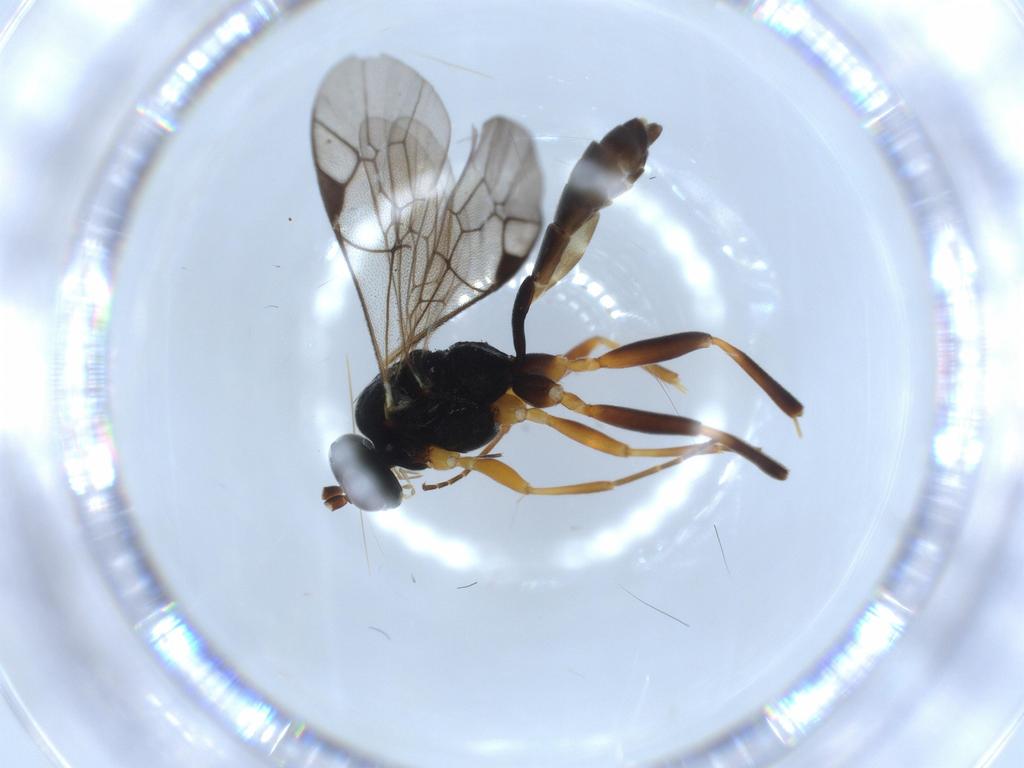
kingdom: Animalia
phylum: Arthropoda
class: Insecta
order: Hymenoptera
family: Ichneumonidae
